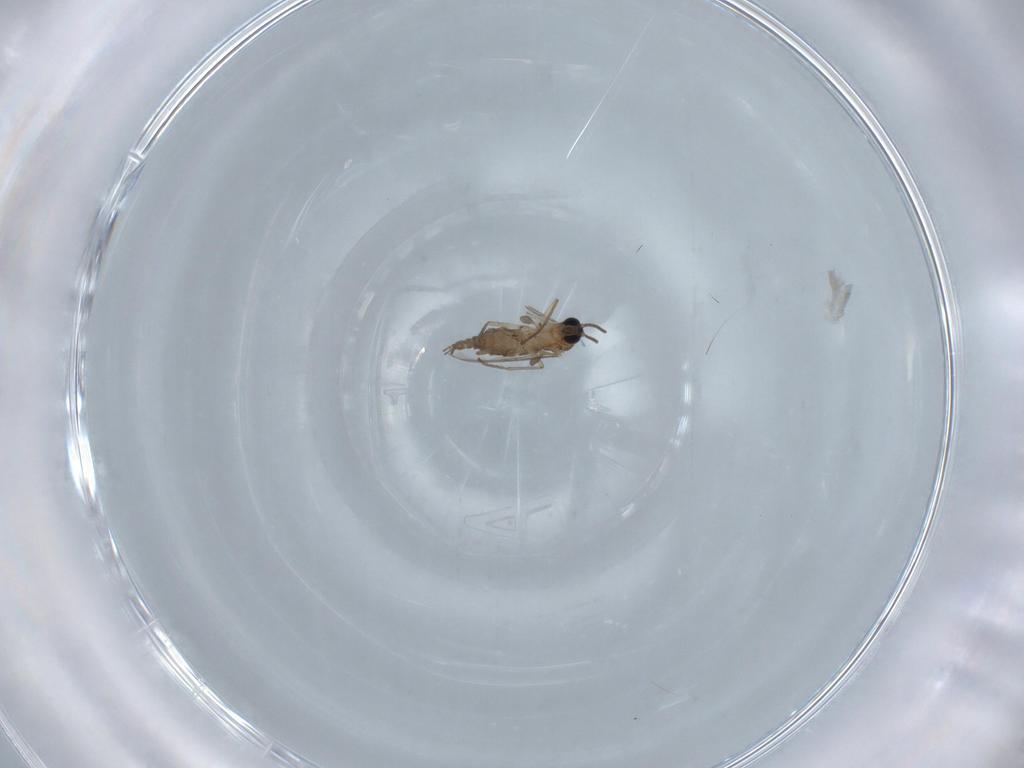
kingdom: Animalia
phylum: Arthropoda
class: Insecta
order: Diptera
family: Sciaridae
